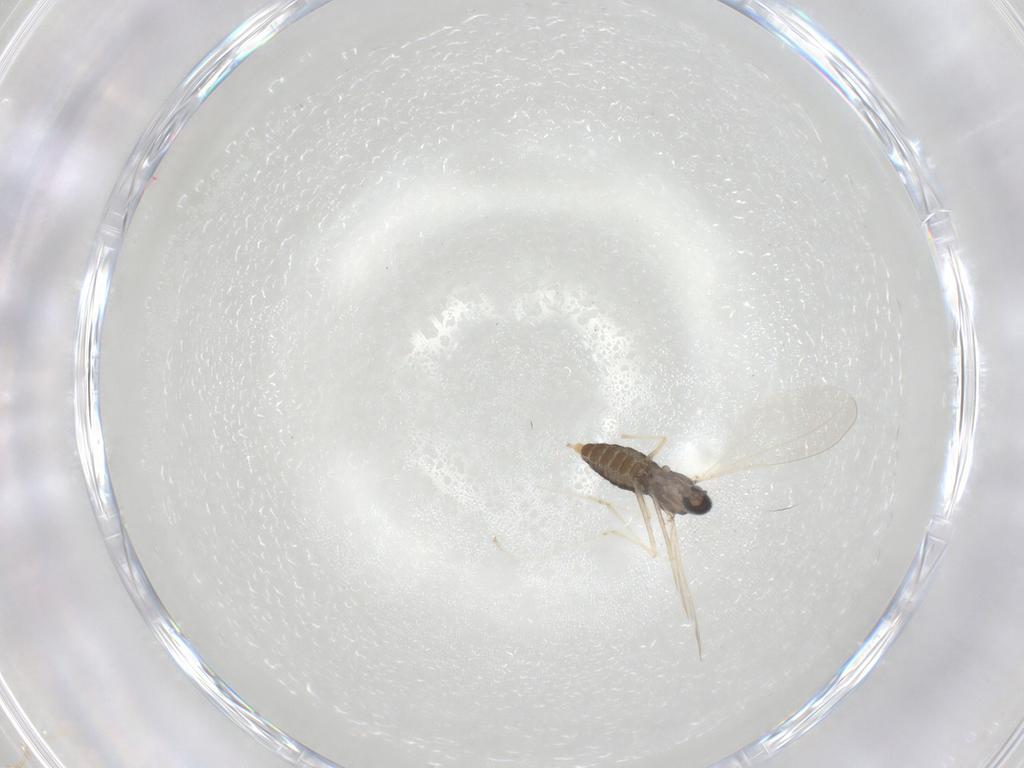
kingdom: Animalia
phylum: Arthropoda
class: Insecta
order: Diptera
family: Cecidomyiidae
